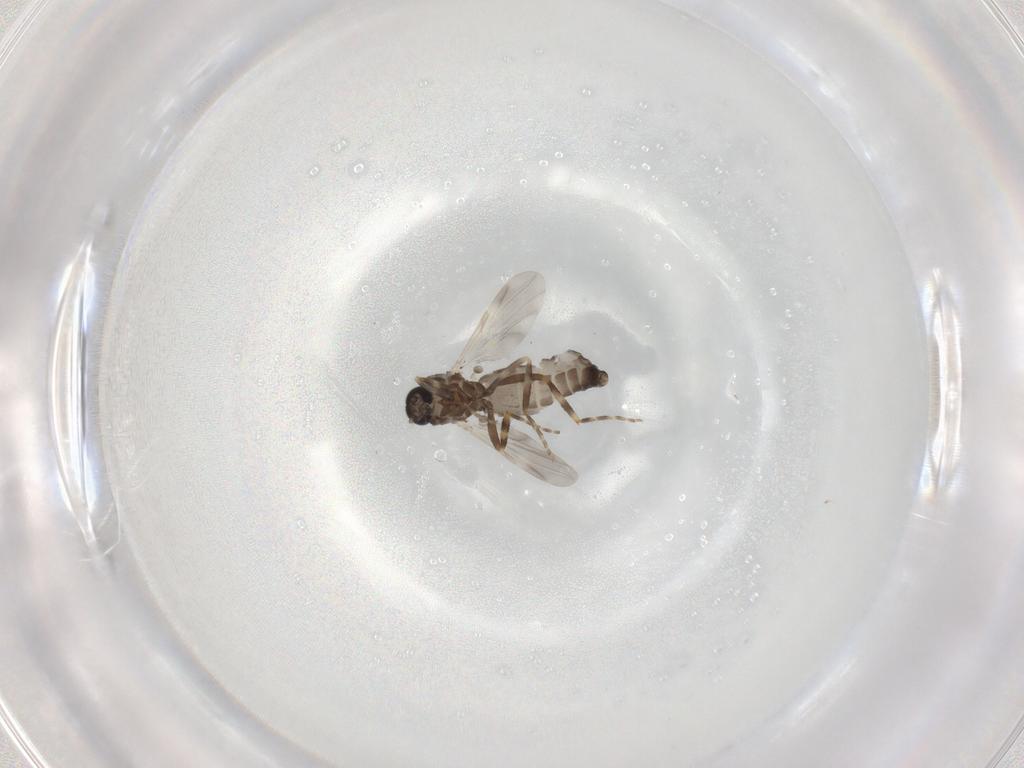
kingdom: Animalia
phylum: Arthropoda
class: Insecta
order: Diptera
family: Ceratopogonidae
